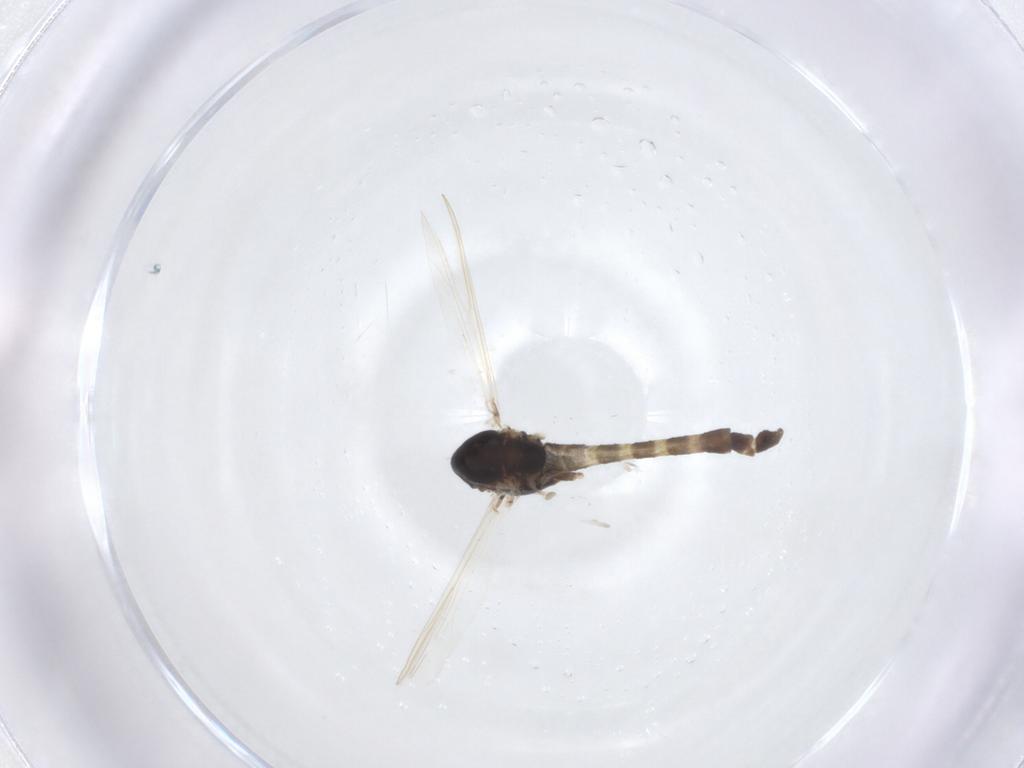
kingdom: Animalia
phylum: Arthropoda
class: Insecta
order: Diptera
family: Chironomidae
